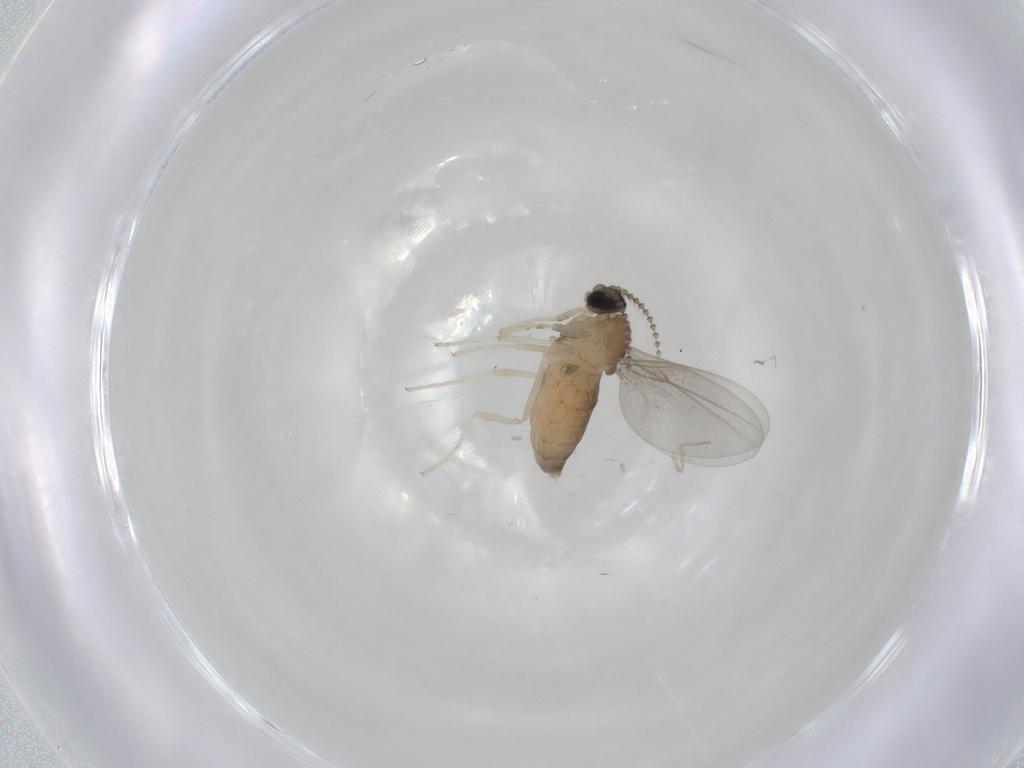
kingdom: Animalia
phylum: Arthropoda
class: Insecta
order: Diptera
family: Cecidomyiidae
